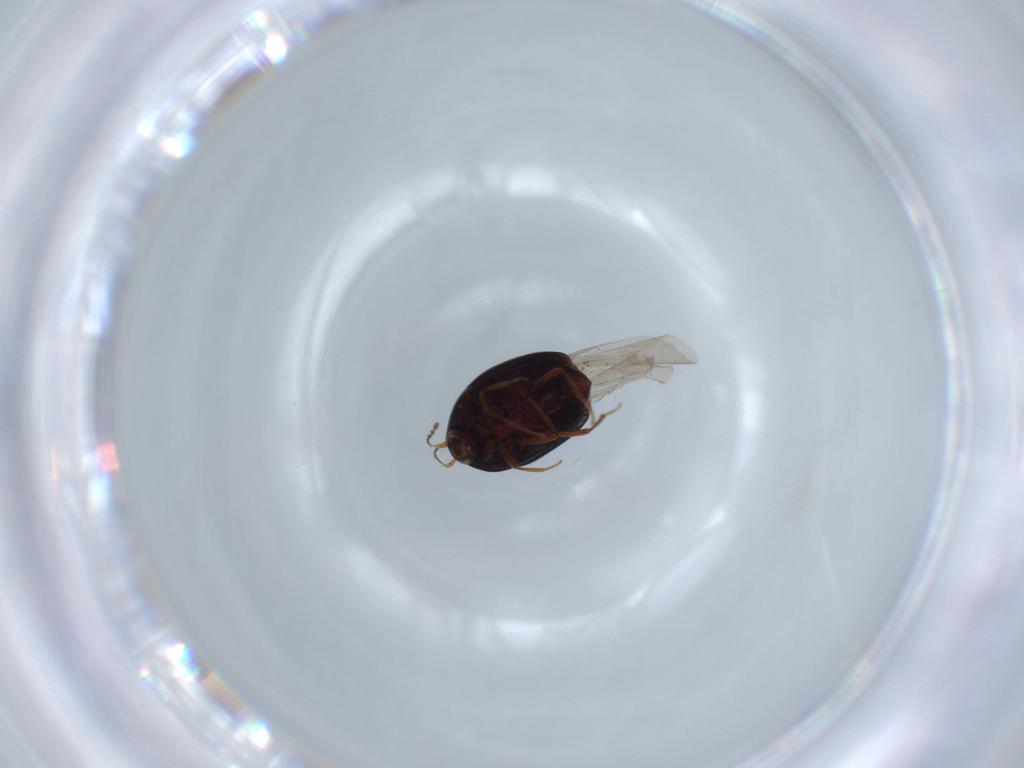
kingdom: Animalia
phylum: Arthropoda
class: Insecta
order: Coleoptera
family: Staphylinidae
